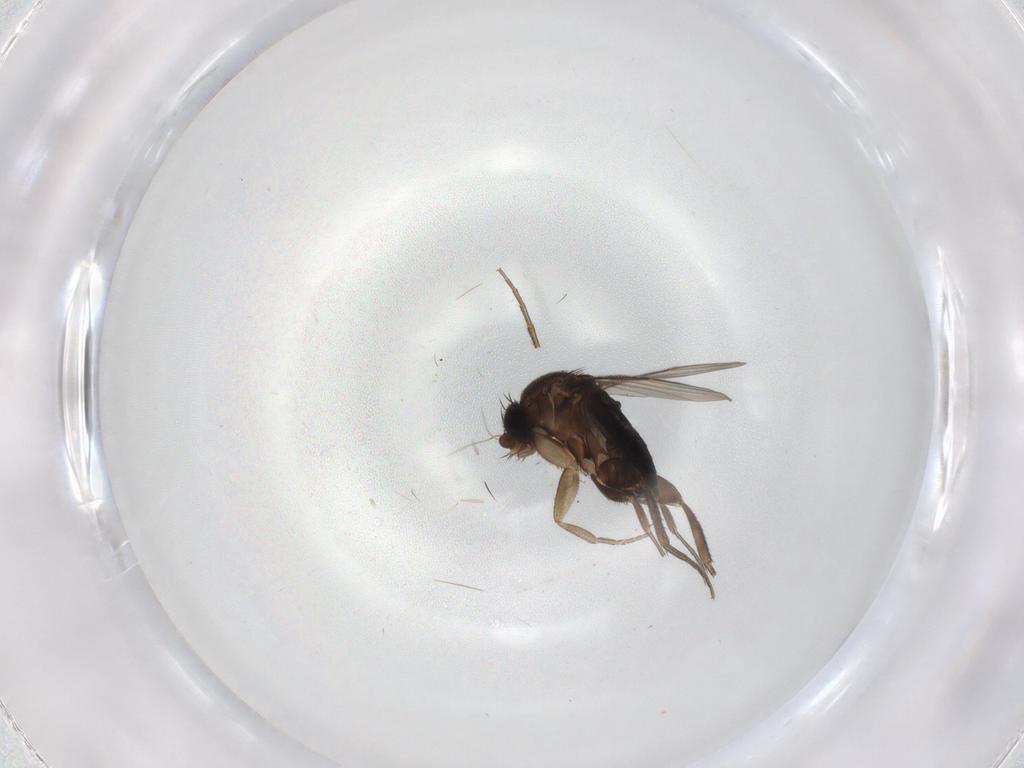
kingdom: Animalia
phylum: Arthropoda
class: Insecta
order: Diptera
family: Phoridae
